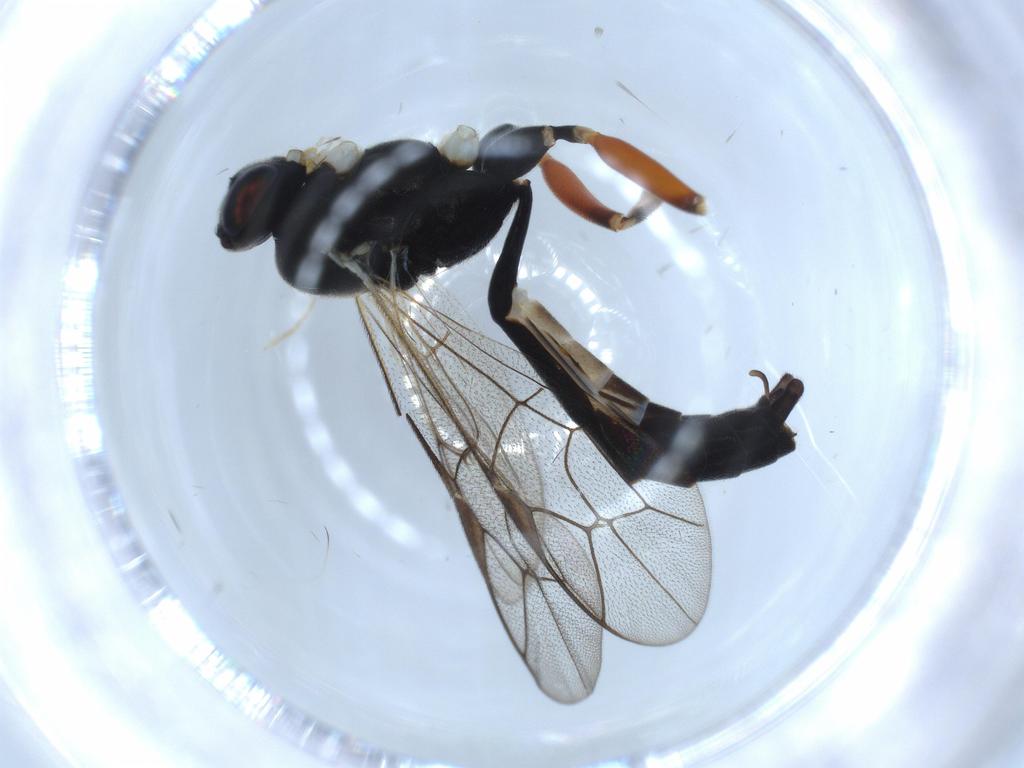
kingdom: Animalia
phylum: Arthropoda
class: Insecta
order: Hymenoptera
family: Ichneumonidae
